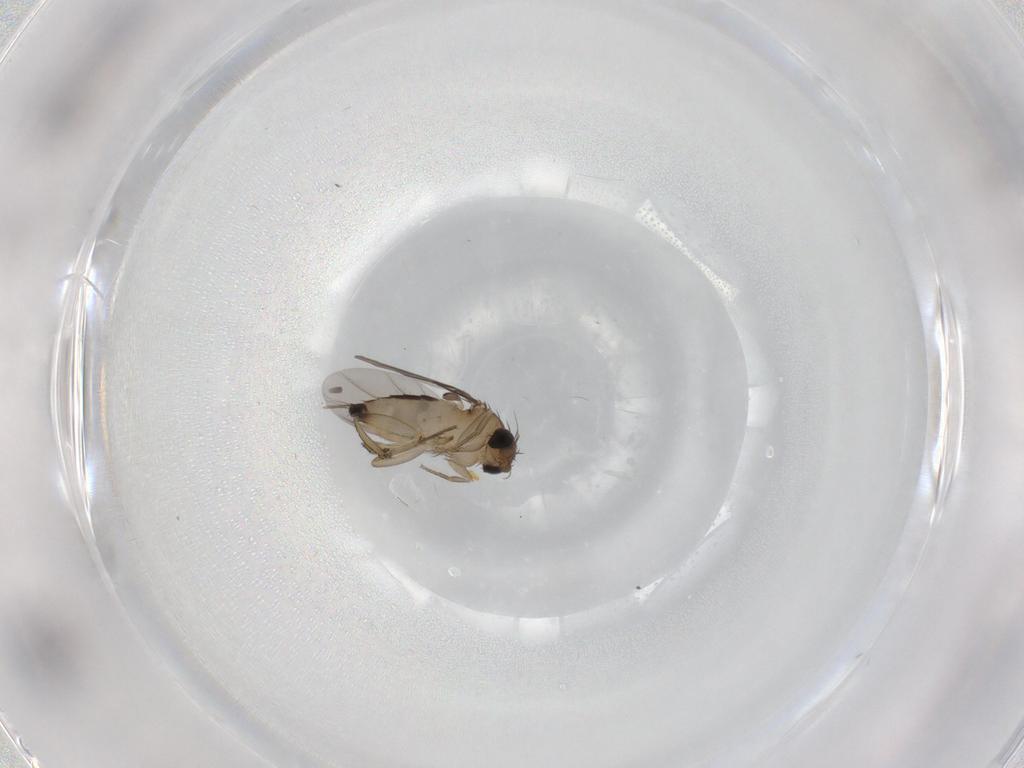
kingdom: Animalia
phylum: Arthropoda
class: Insecta
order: Diptera
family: Phoridae
